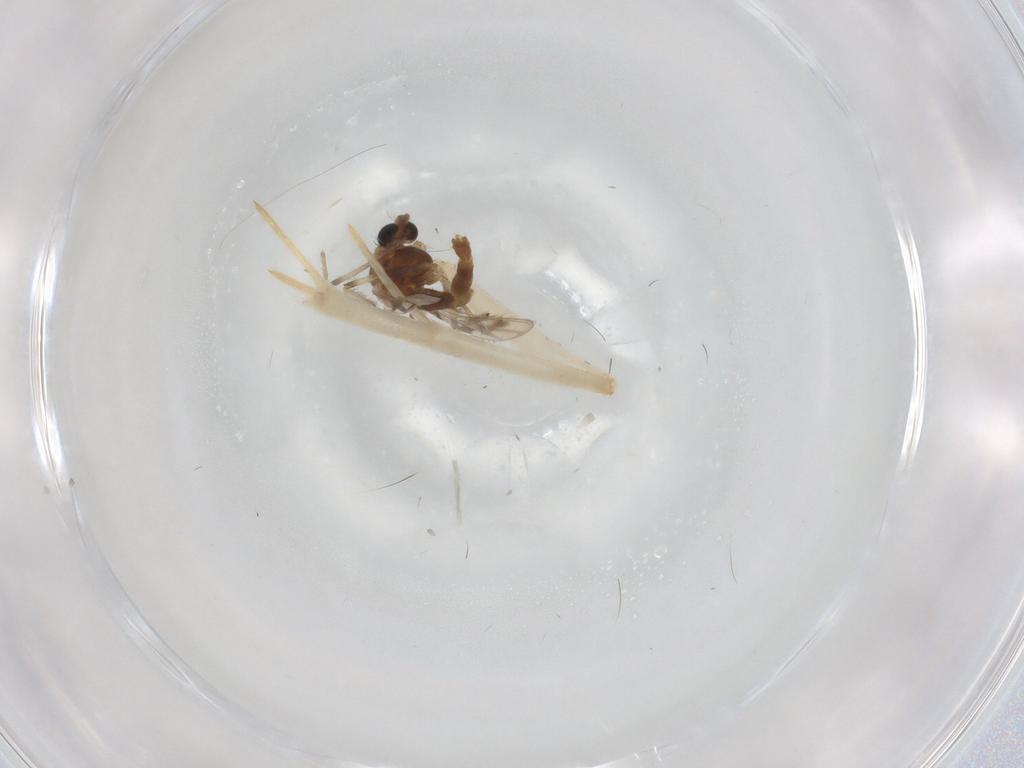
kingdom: Animalia
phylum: Arthropoda
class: Insecta
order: Diptera
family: Chironomidae
